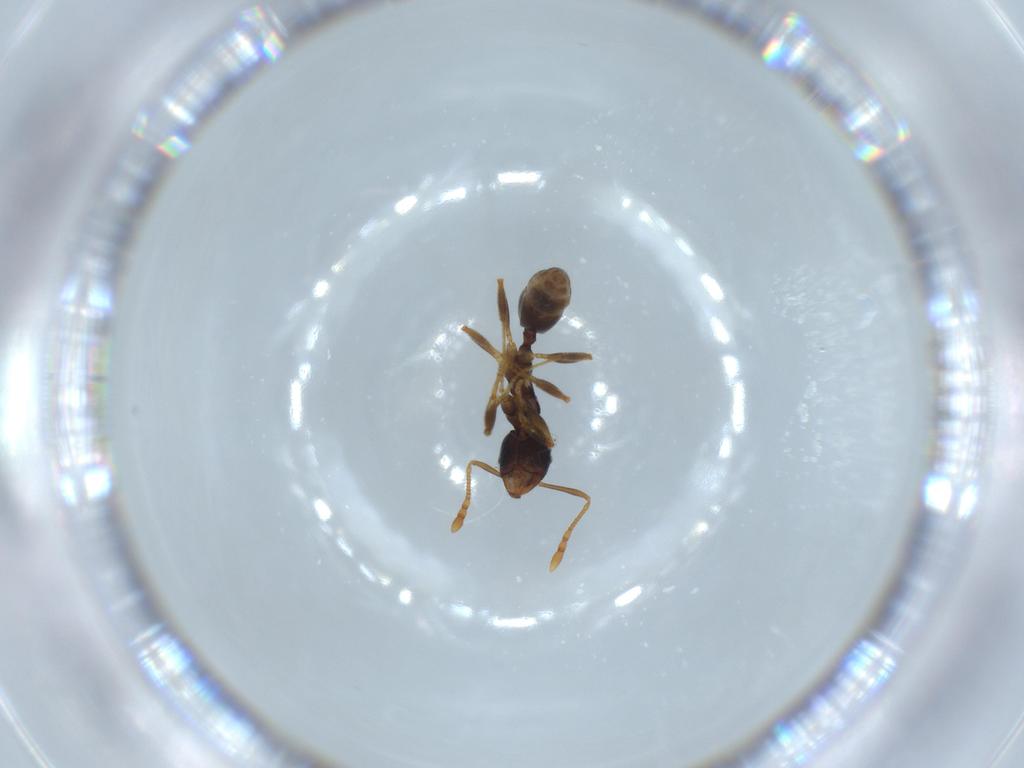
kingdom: Animalia
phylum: Arthropoda
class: Insecta
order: Hymenoptera
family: Formicidae
